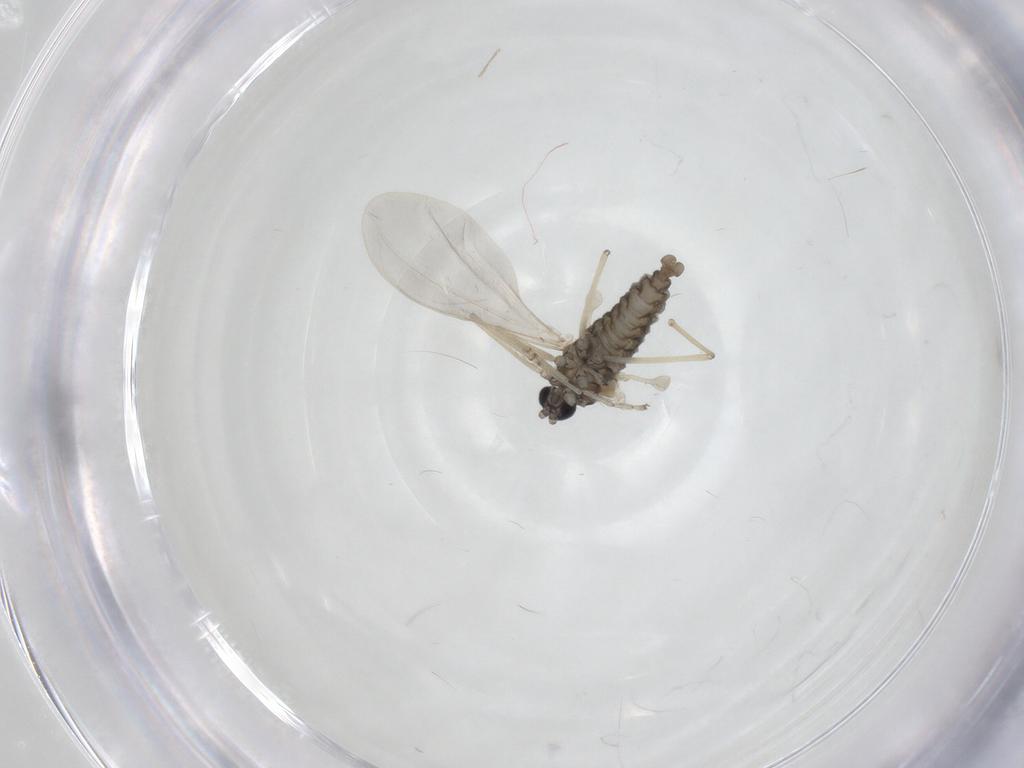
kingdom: Animalia
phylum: Arthropoda
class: Insecta
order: Diptera
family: Cecidomyiidae
